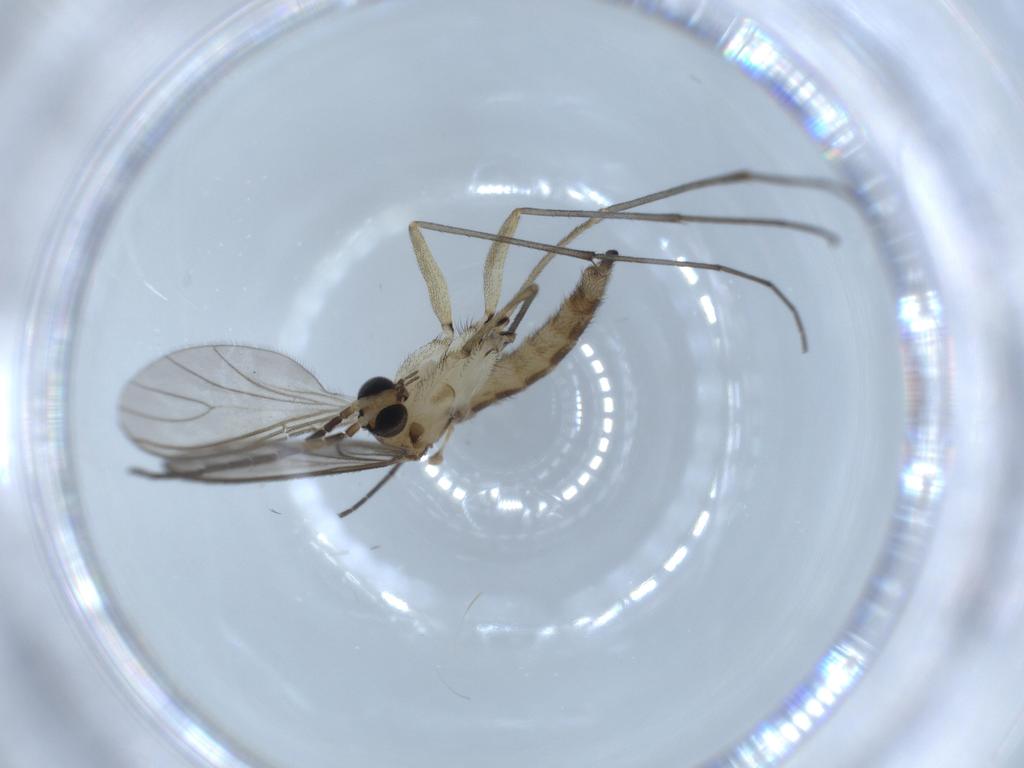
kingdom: Animalia
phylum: Arthropoda
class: Insecta
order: Diptera
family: Sciaridae
